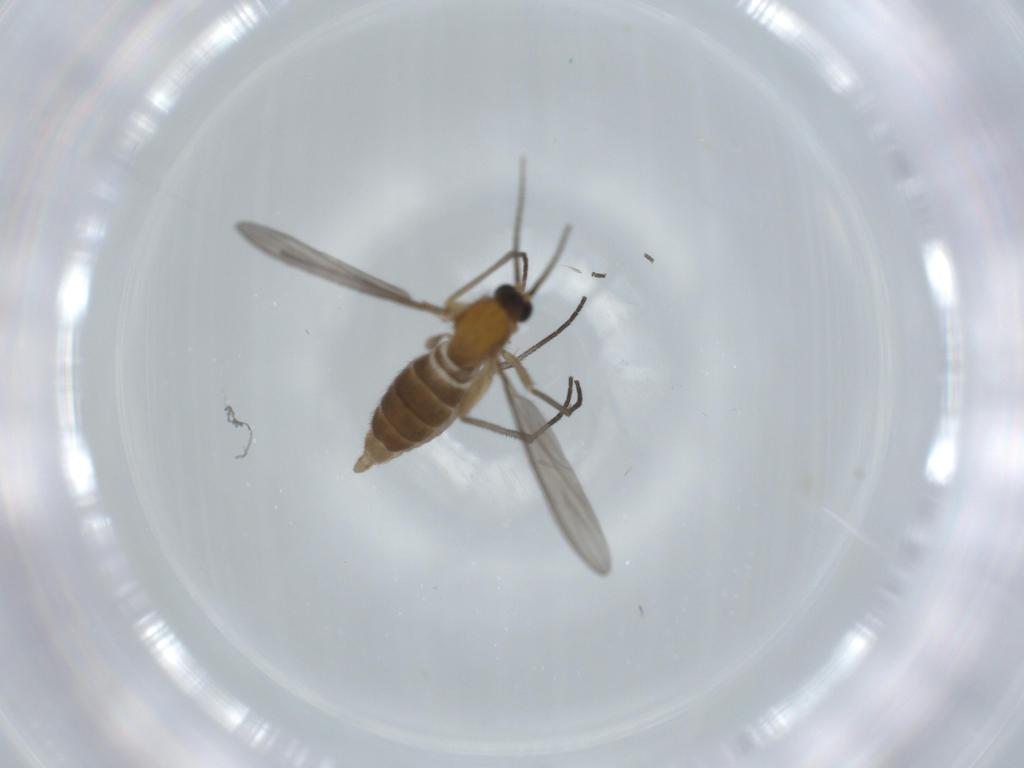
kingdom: Animalia
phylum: Arthropoda
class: Insecta
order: Diptera
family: Sciaridae
